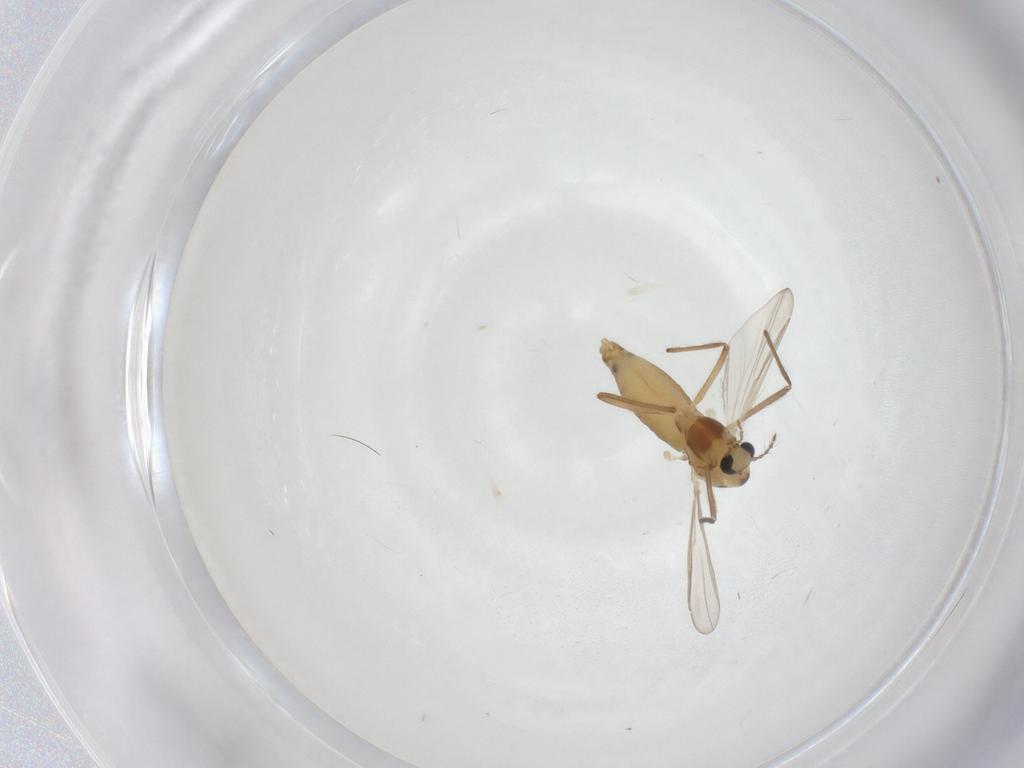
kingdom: Animalia
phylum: Arthropoda
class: Insecta
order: Diptera
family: Chironomidae
